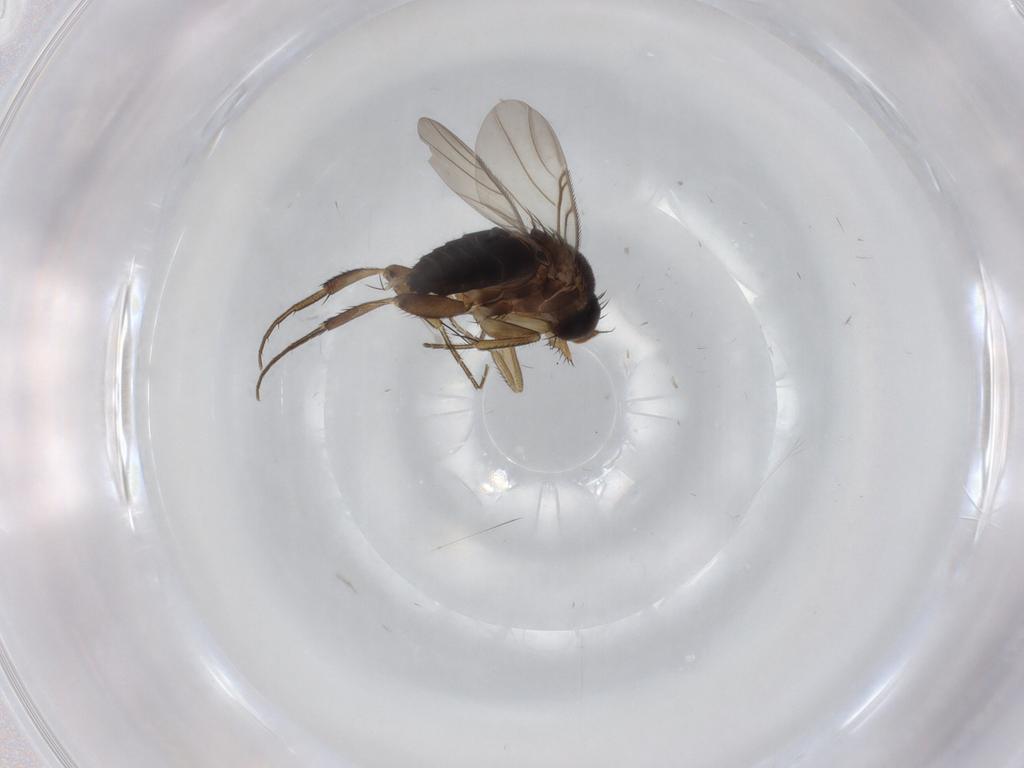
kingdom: Animalia
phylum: Arthropoda
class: Insecta
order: Diptera
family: Phoridae
